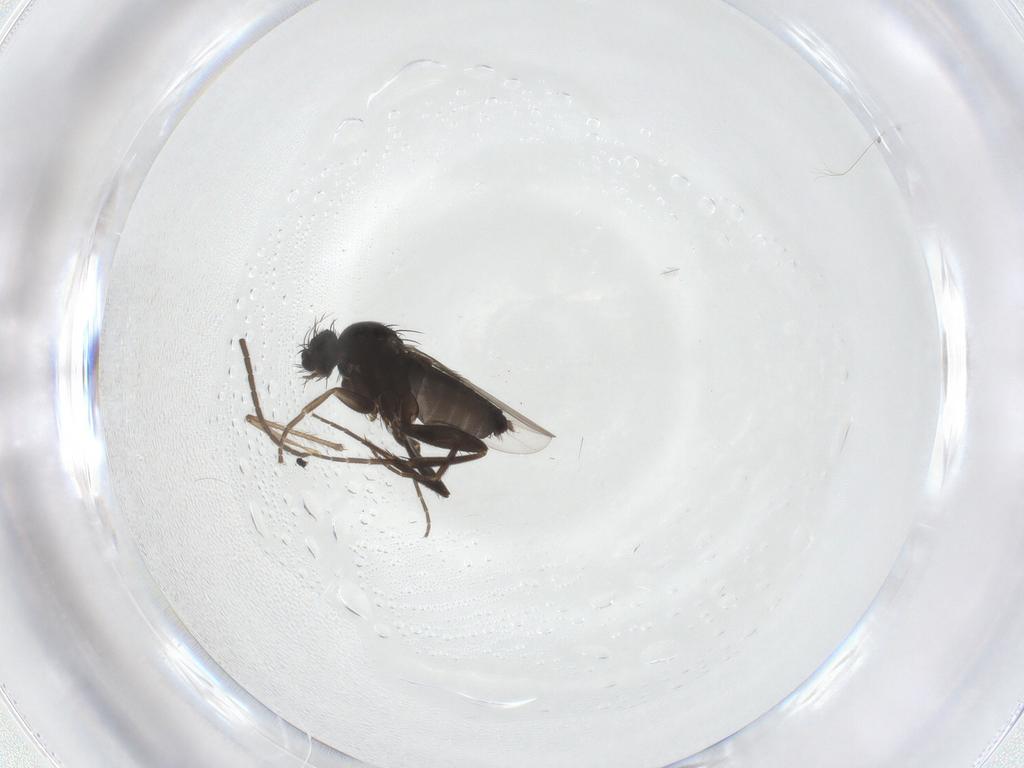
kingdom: Animalia
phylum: Arthropoda
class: Insecta
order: Diptera
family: Phoridae
